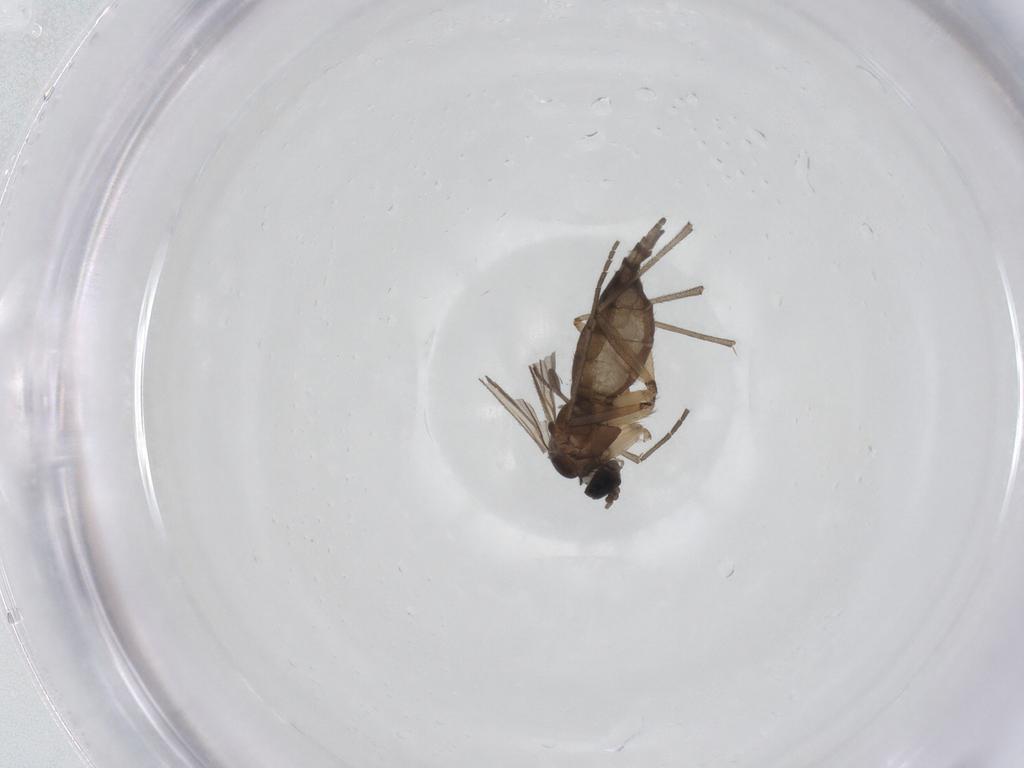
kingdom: Animalia
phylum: Arthropoda
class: Insecta
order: Diptera
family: Sciaridae
